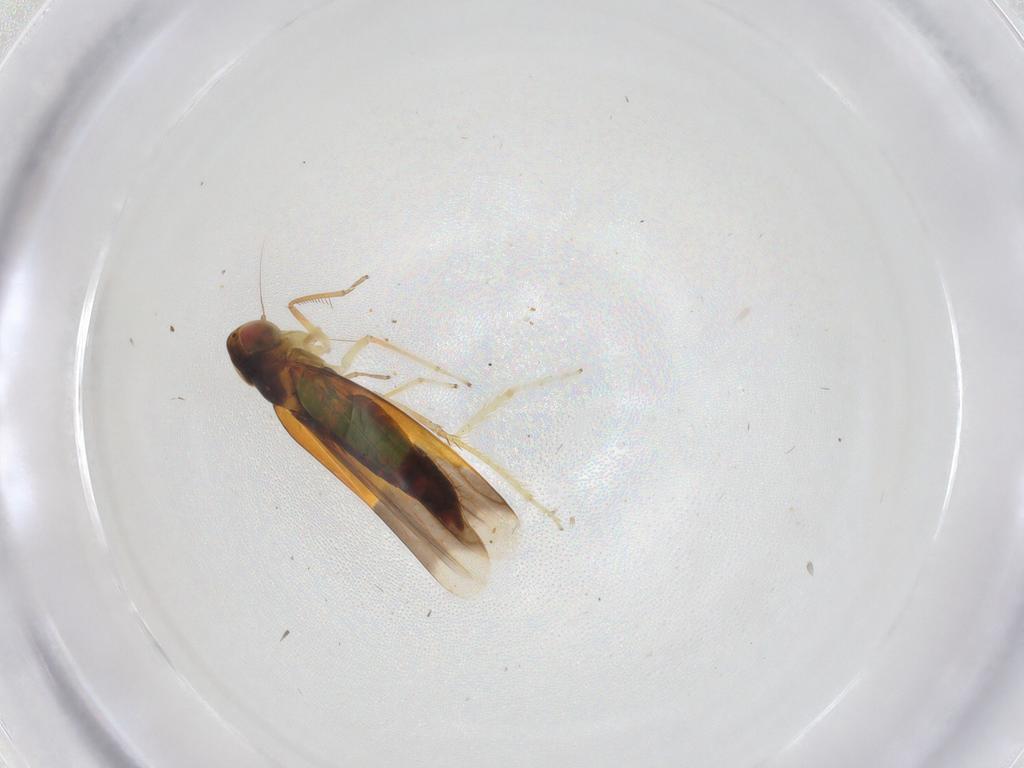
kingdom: Animalia
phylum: Arthropoda
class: Insecta
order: Hemiptera
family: Cicadellidae
